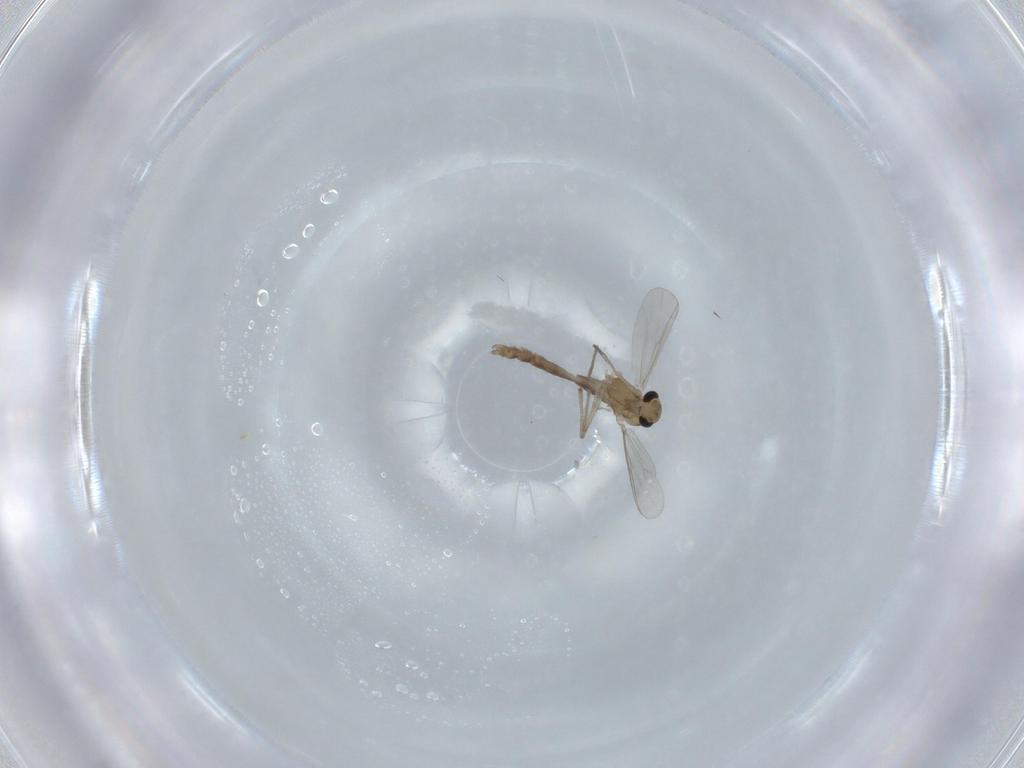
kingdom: Animalia
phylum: Arthropoda
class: Insecta
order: Diptera
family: Chironomidae
